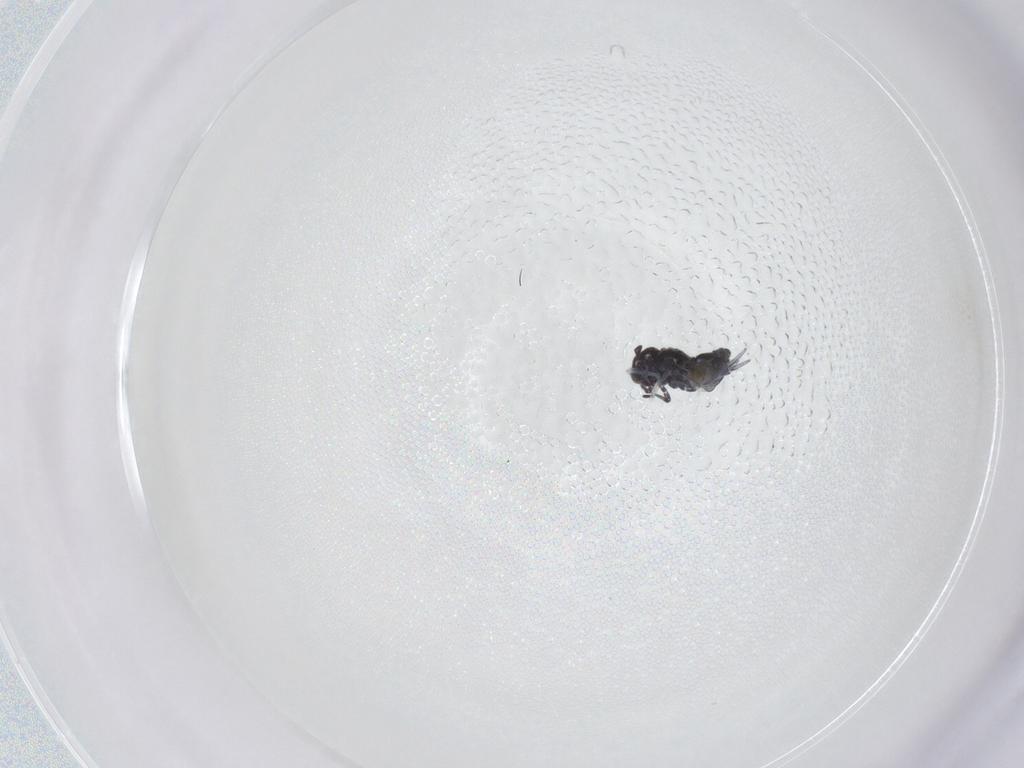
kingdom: Animalia
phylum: Arthropoda
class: Collembola
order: Symphypleona
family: Bourletiellidae
